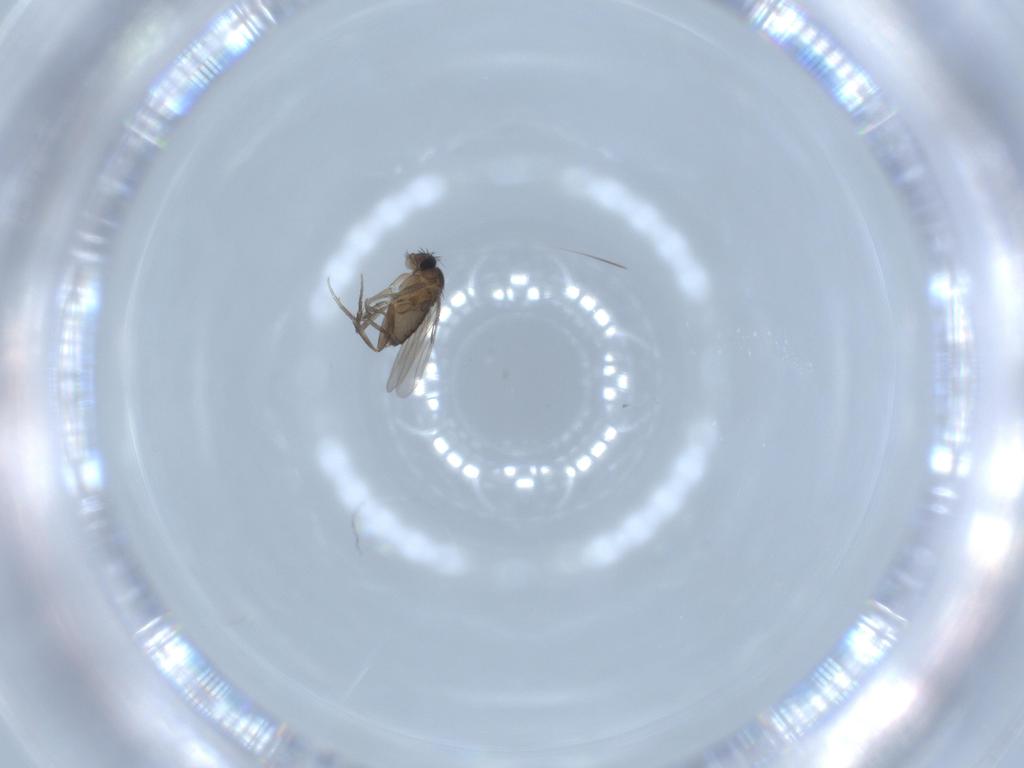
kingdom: Animalia
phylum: Arthropoda
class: Insecta
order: Diptera
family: Phoridae
